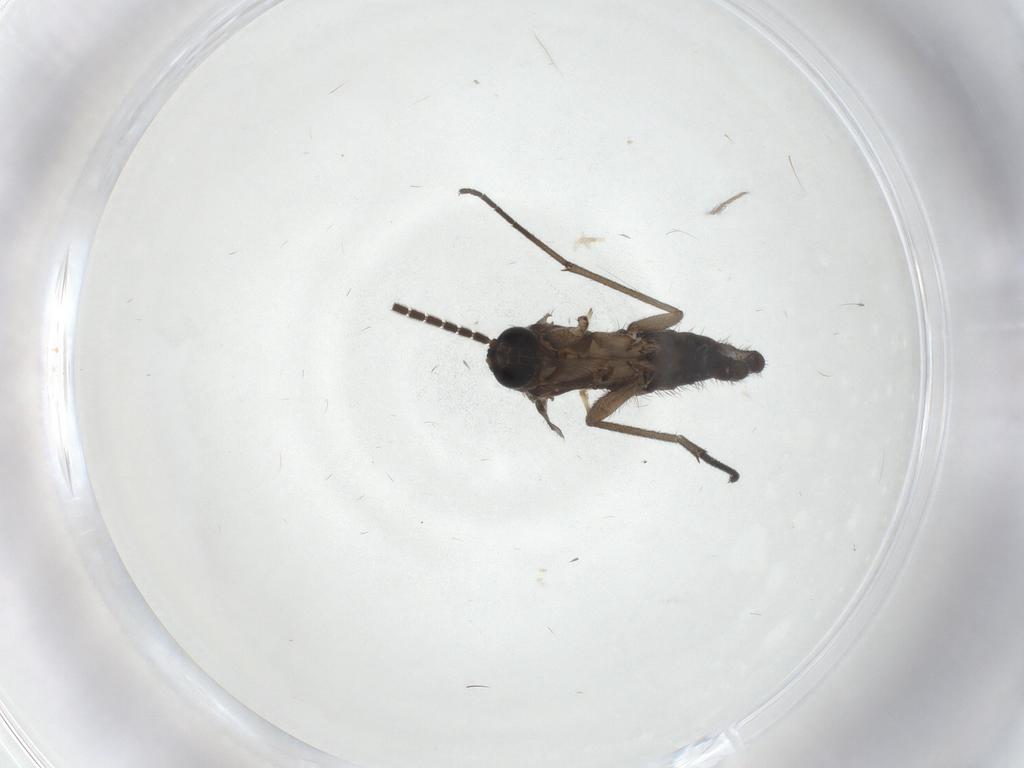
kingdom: Animalia
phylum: Arthropoda
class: Insecta
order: Diptera
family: Sciaridae
